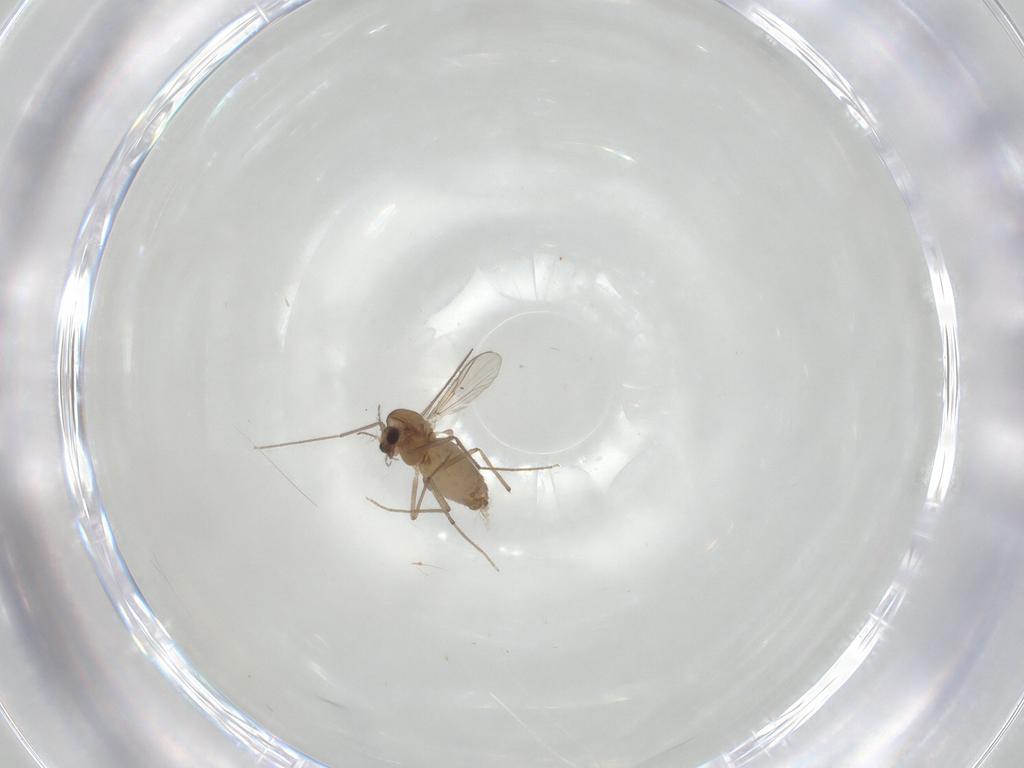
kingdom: Animalia
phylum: Arthropoda
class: Insecta
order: Diptera
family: Chironomidae
